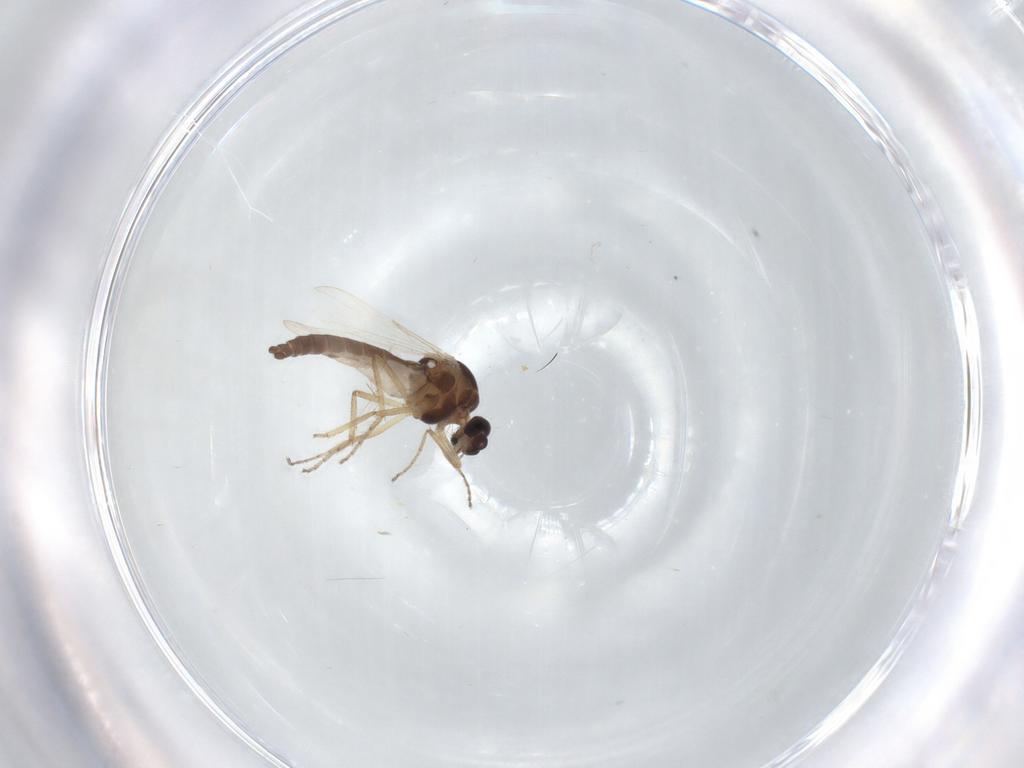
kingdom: Animalia
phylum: Arthropoda
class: Insecta
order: Diptera
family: Ceratopogonidae
